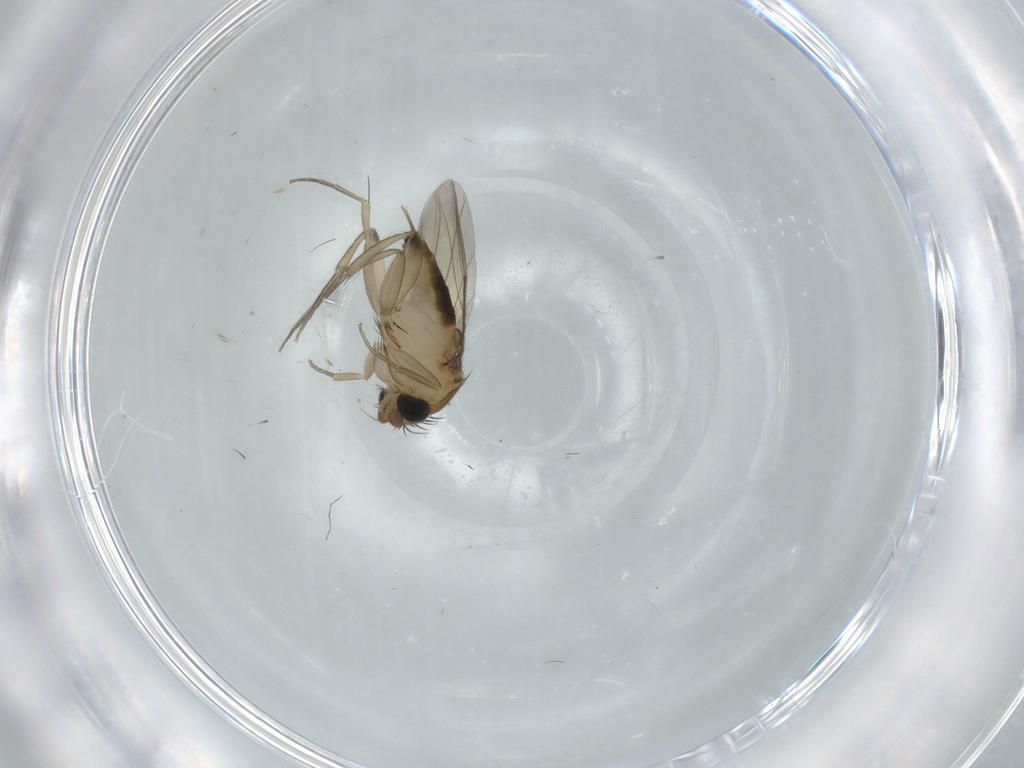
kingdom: Animalia
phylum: Arthropoda
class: Insecta
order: Diptera
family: Phoridae
